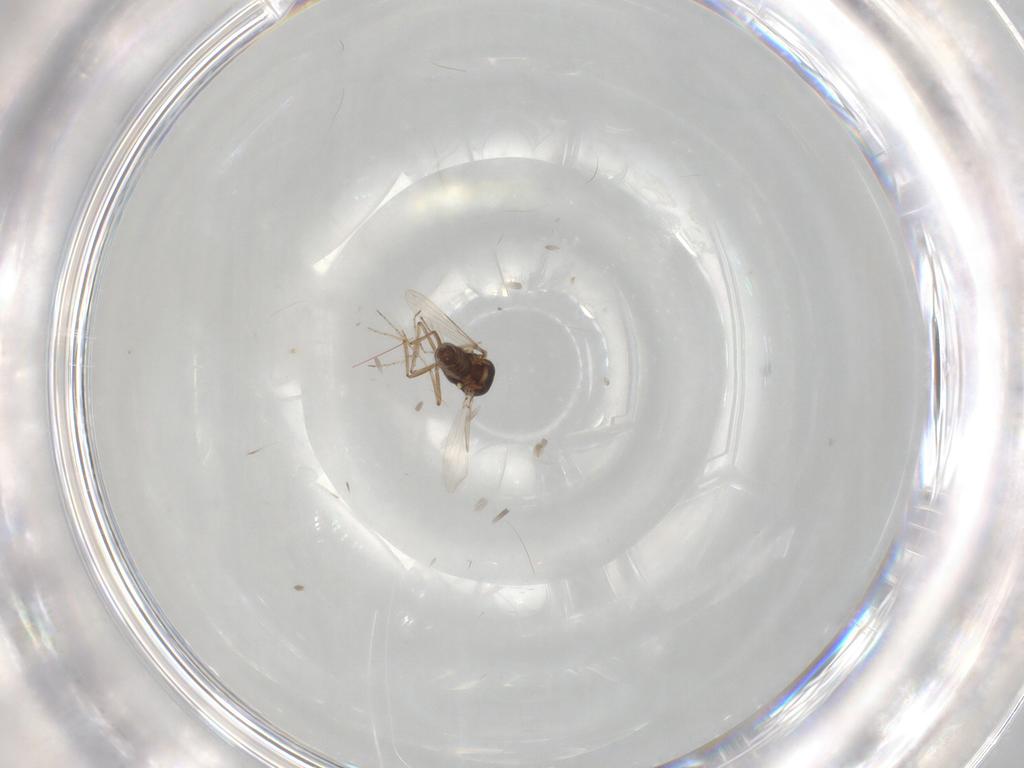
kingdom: Animalia
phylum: Arthropoda
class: Insecta
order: Diptera
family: Ceratopogonidae
